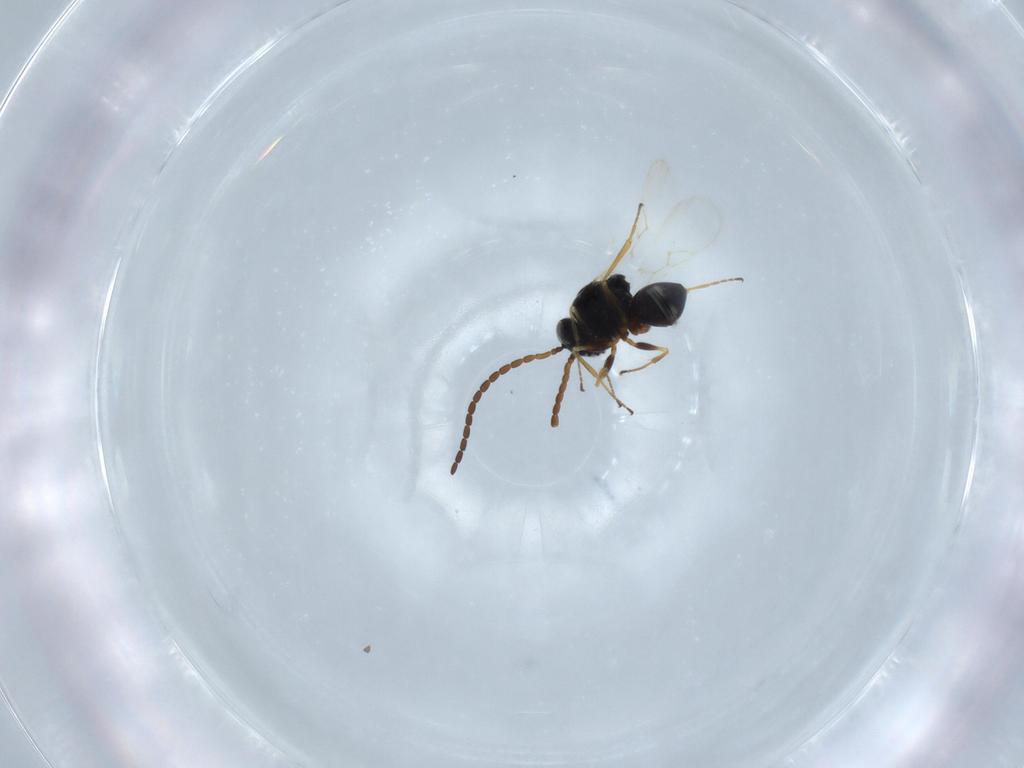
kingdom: Animalia
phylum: Arthropoda
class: Insecta
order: Hymenoptera
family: Figitidae
